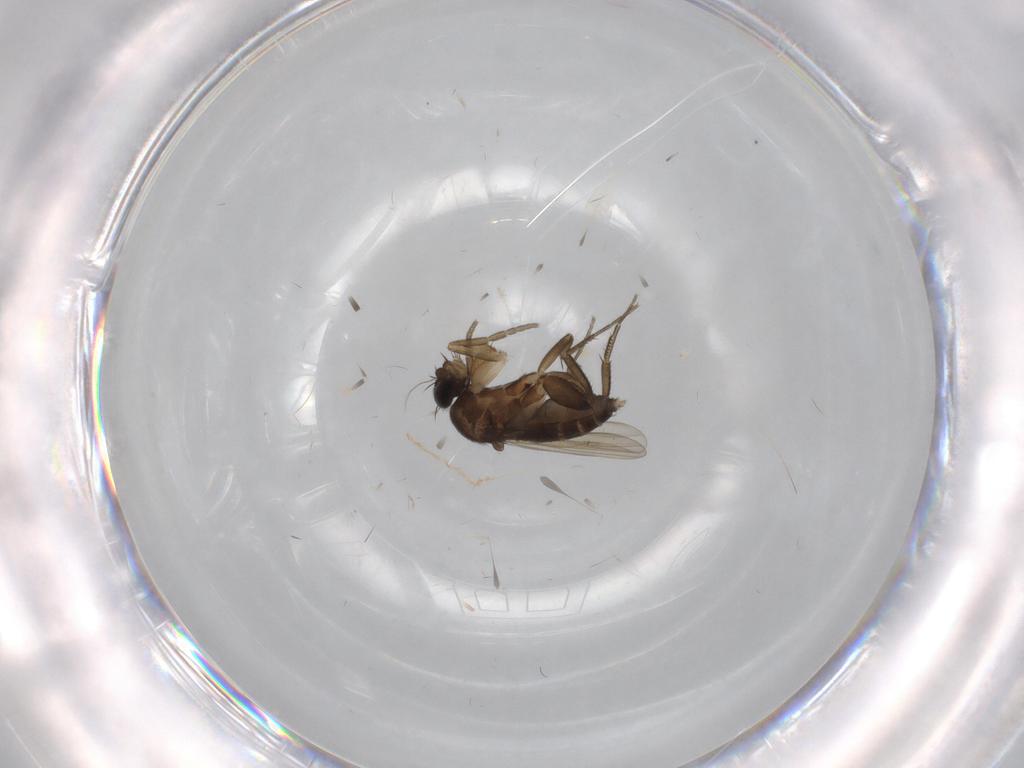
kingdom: Animalia
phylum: Arthropoda
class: Insecta
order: Diptera
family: Phoridae
